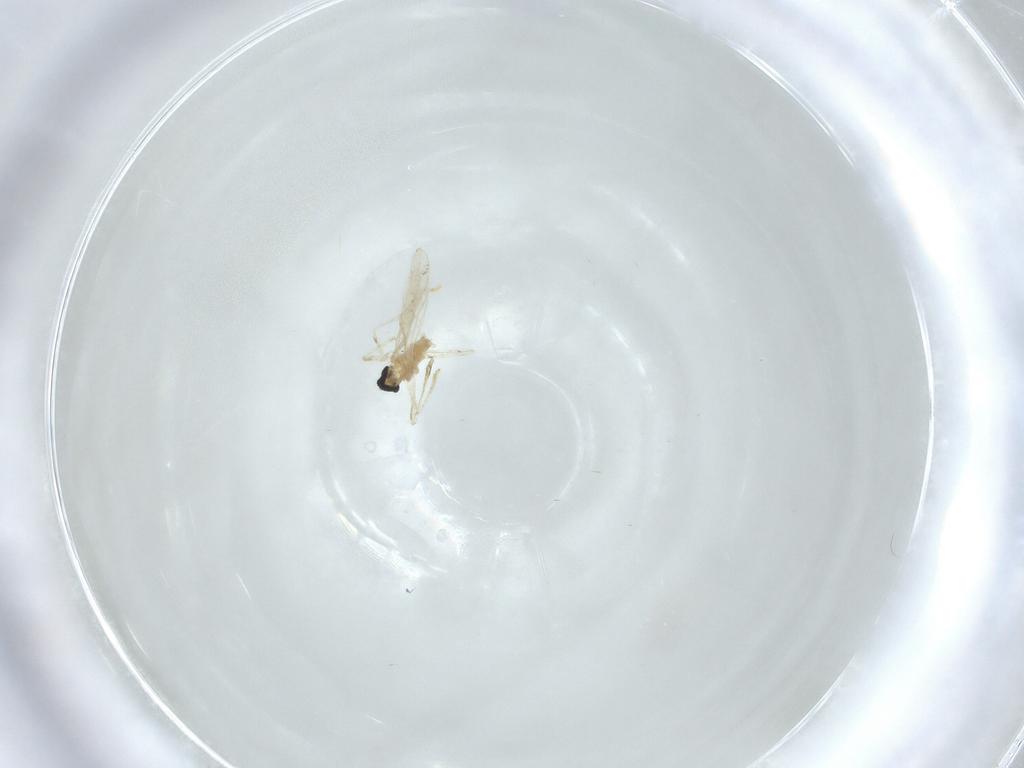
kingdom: Animalia
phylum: Arthropoda
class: Insecta
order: Diptera
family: Cecidomyiidae
